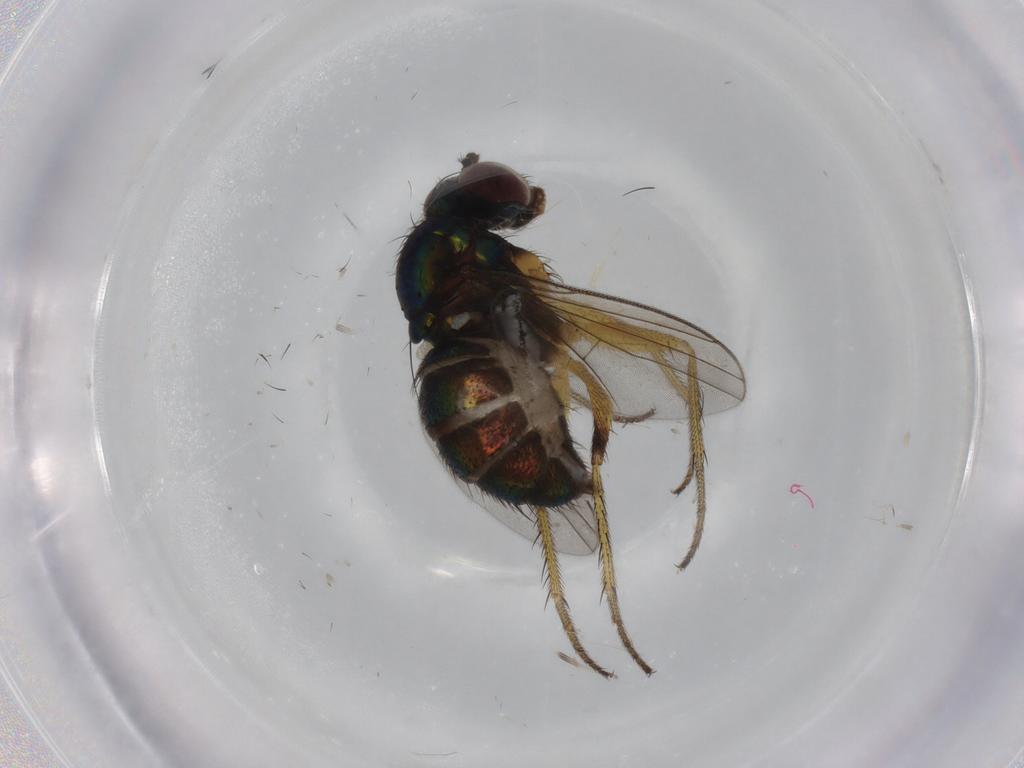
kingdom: Animalia
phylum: Arthropoda
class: Insecta
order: Diptera
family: Dolichopodidae
